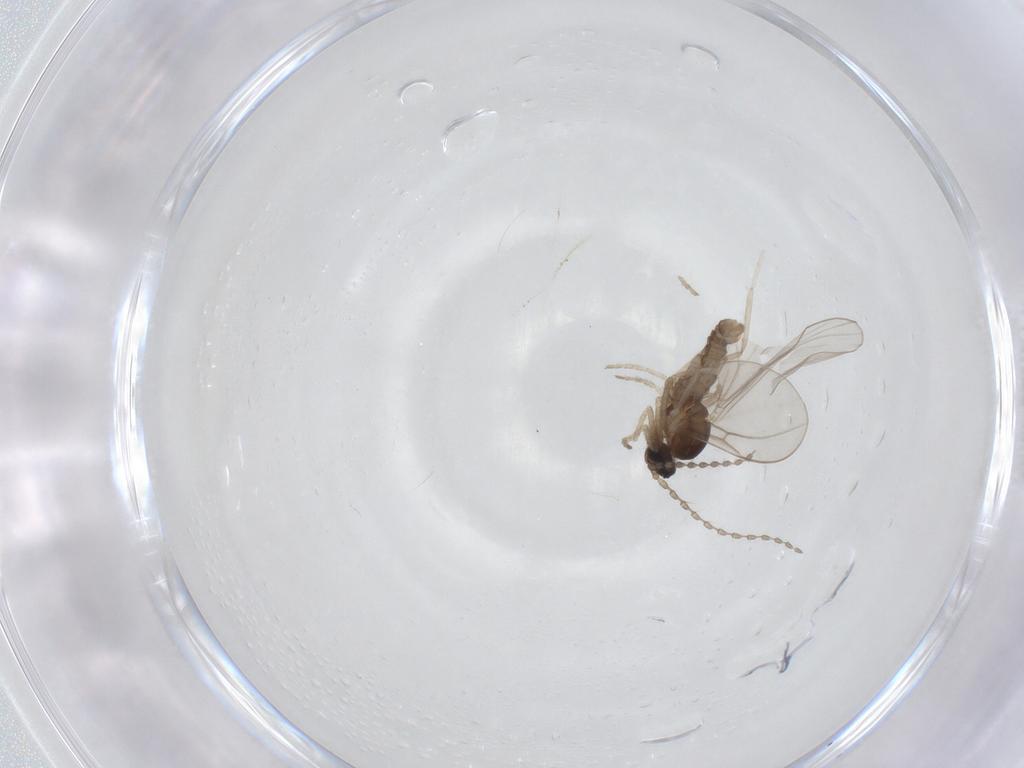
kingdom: Animalia
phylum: Arthropoda
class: Insecta
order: Diptera
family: Cecidomyiidae
